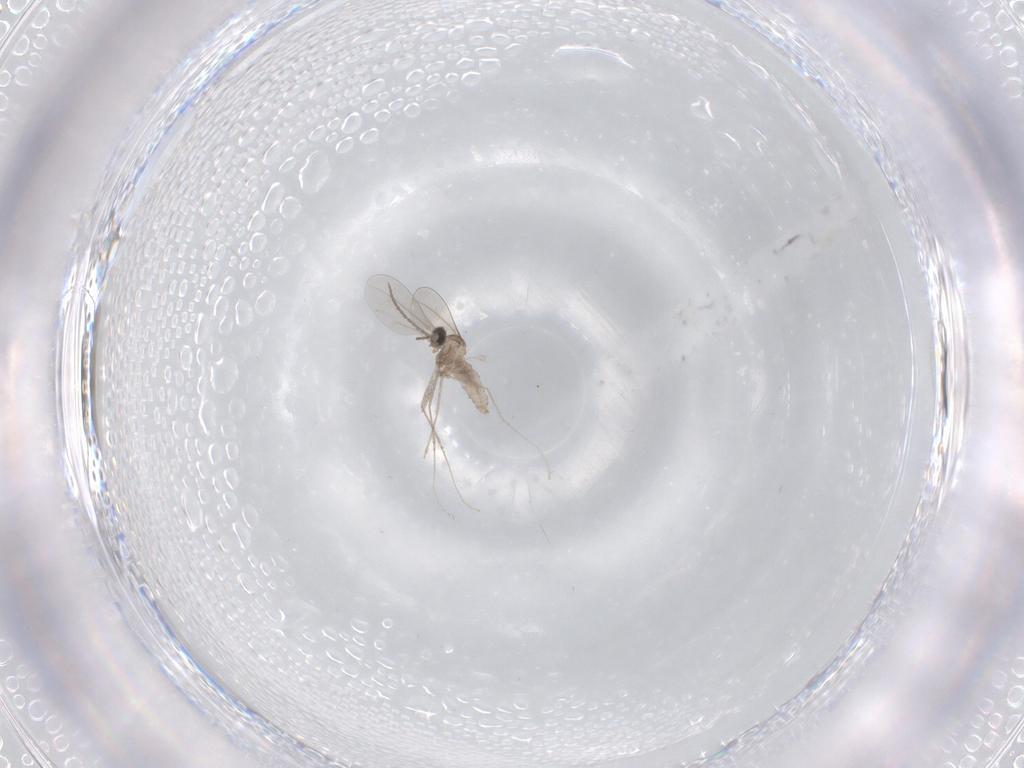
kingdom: Animalia
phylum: Arthropoda
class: Insecta
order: Diptera
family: Cecidomyiidae
